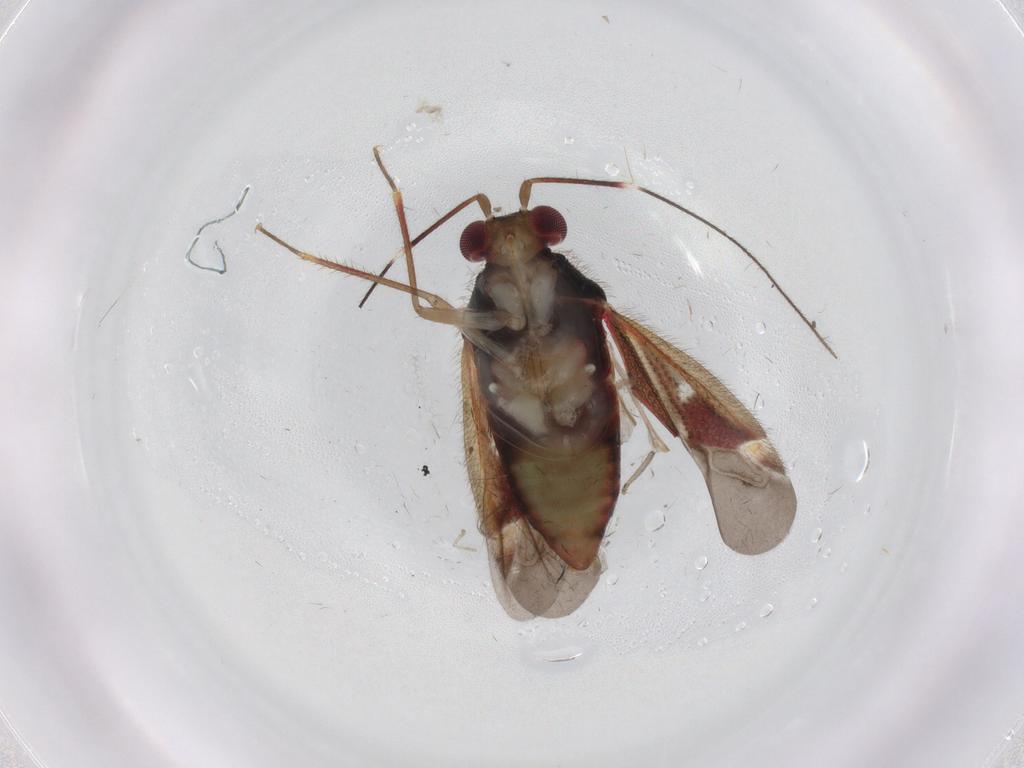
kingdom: Animalia
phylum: Arthropoda
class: Insecta
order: Hemiptera
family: Miridae
